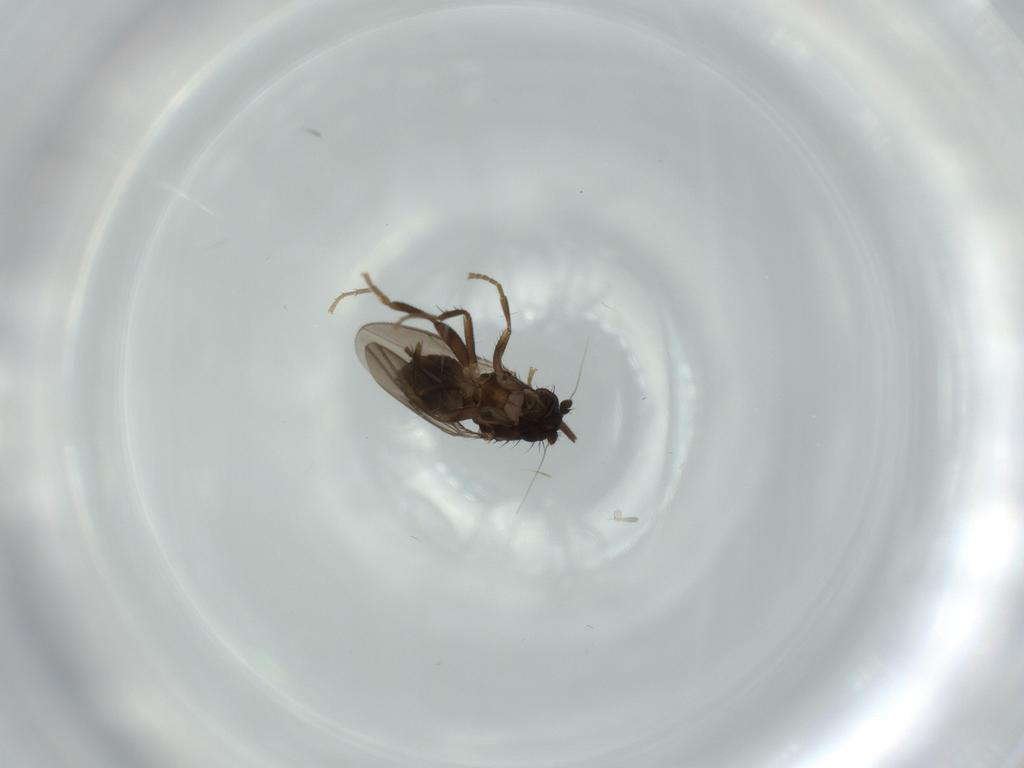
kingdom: Animalia
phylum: Arthropoda
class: Insecta
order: Diptera
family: Sphaeroceridae
